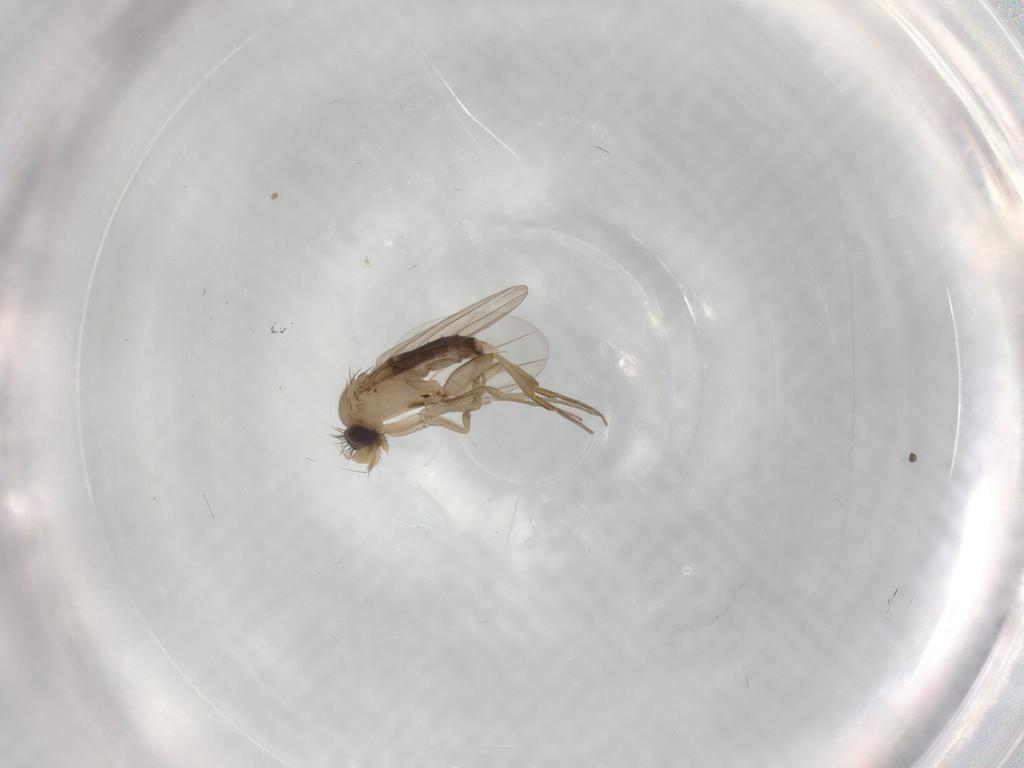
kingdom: Animalia
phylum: Arthropoda
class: Insecta
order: Diptera
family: Phoridae
